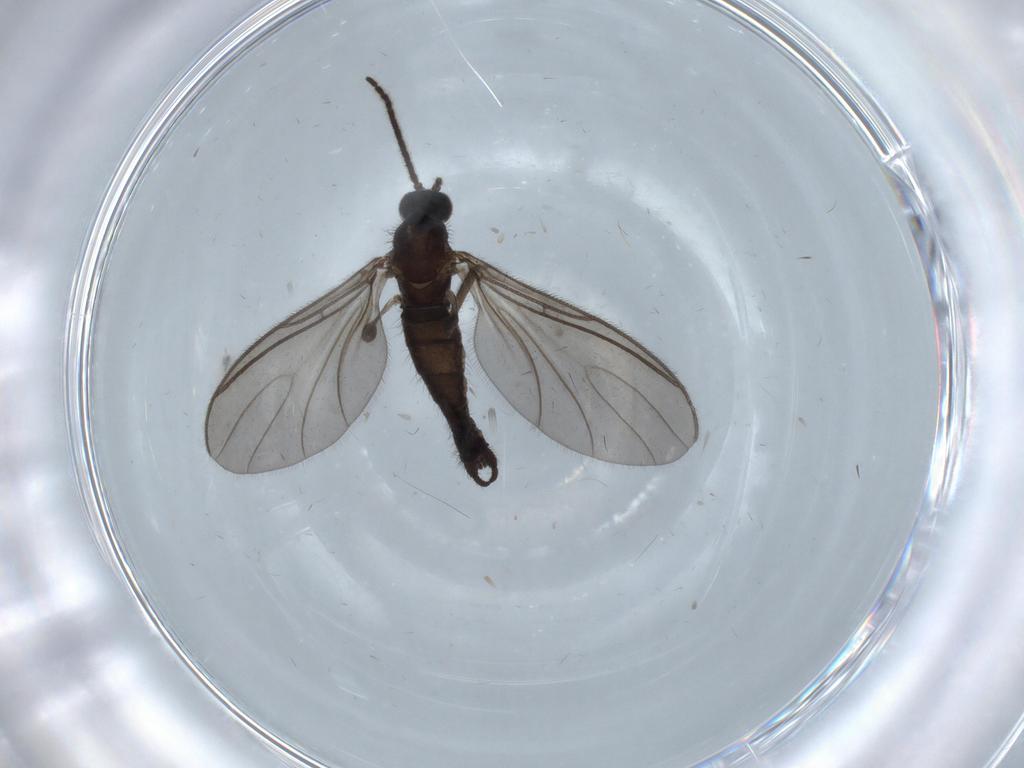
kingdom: Animalia
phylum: Arthropoda
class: Insecta
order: Diptera
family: Sciaridae
